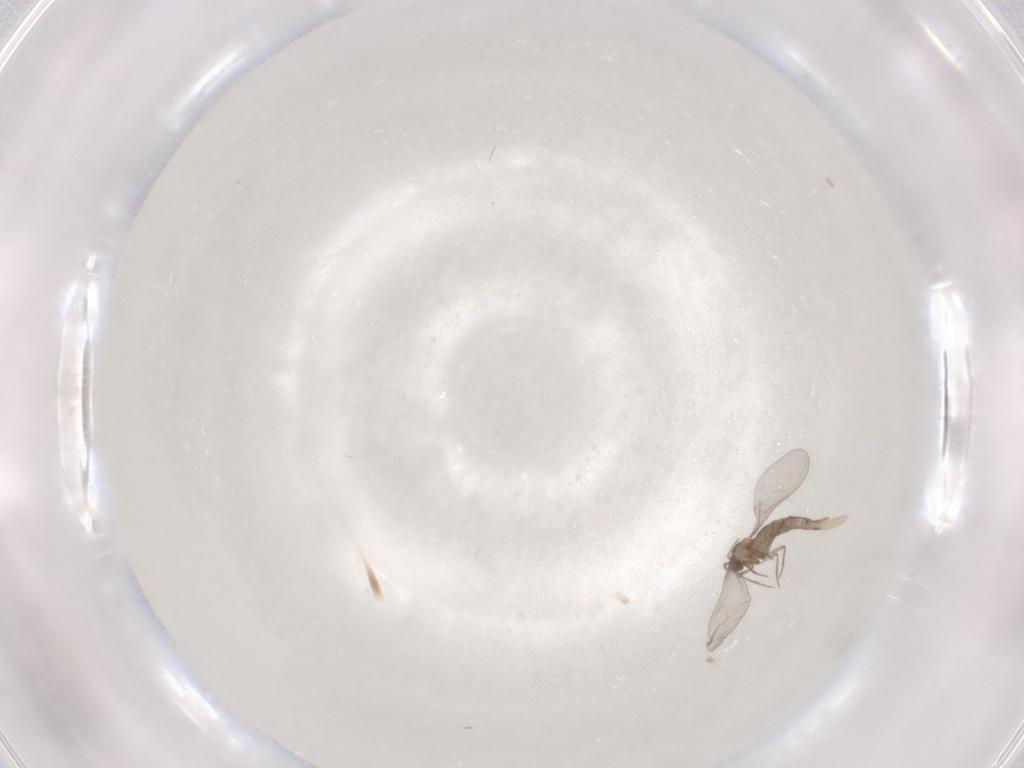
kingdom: Animalia
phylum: Arthropoda
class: Insecta
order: Diptera
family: Cecidomyiidae
